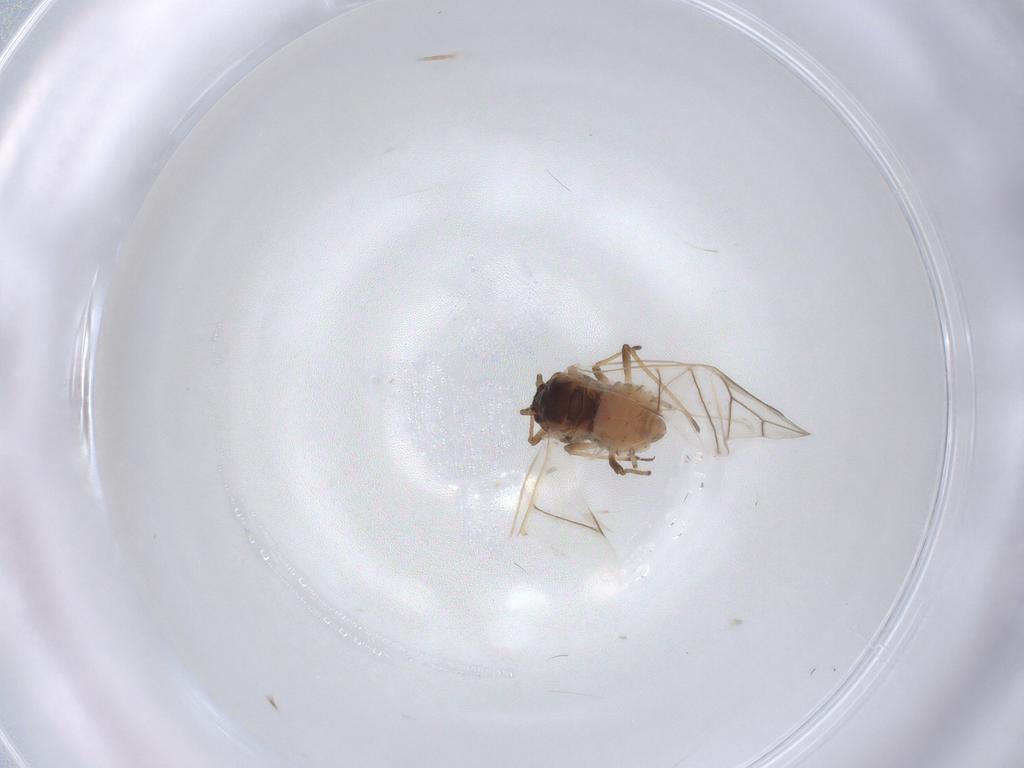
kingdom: Animalia
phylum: Arthropoda
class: Insecta
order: Hemiptera
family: Aphididae
